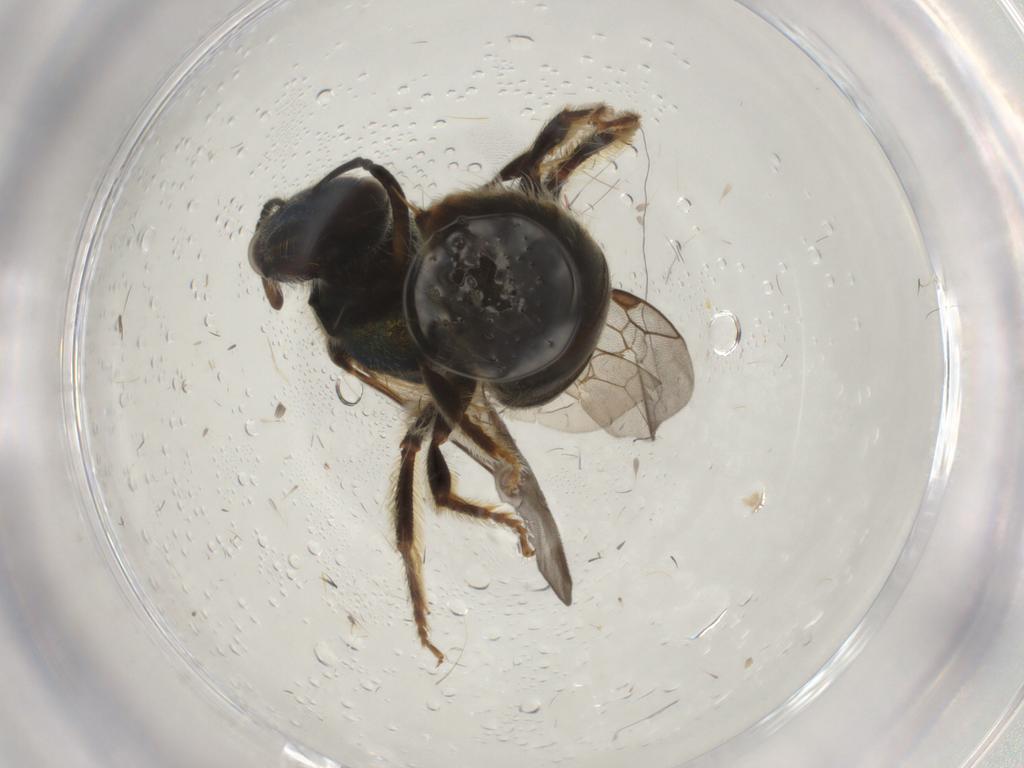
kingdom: Animalia
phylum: Arthropoda
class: Insecta
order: Hymenoptera
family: Halictidae
